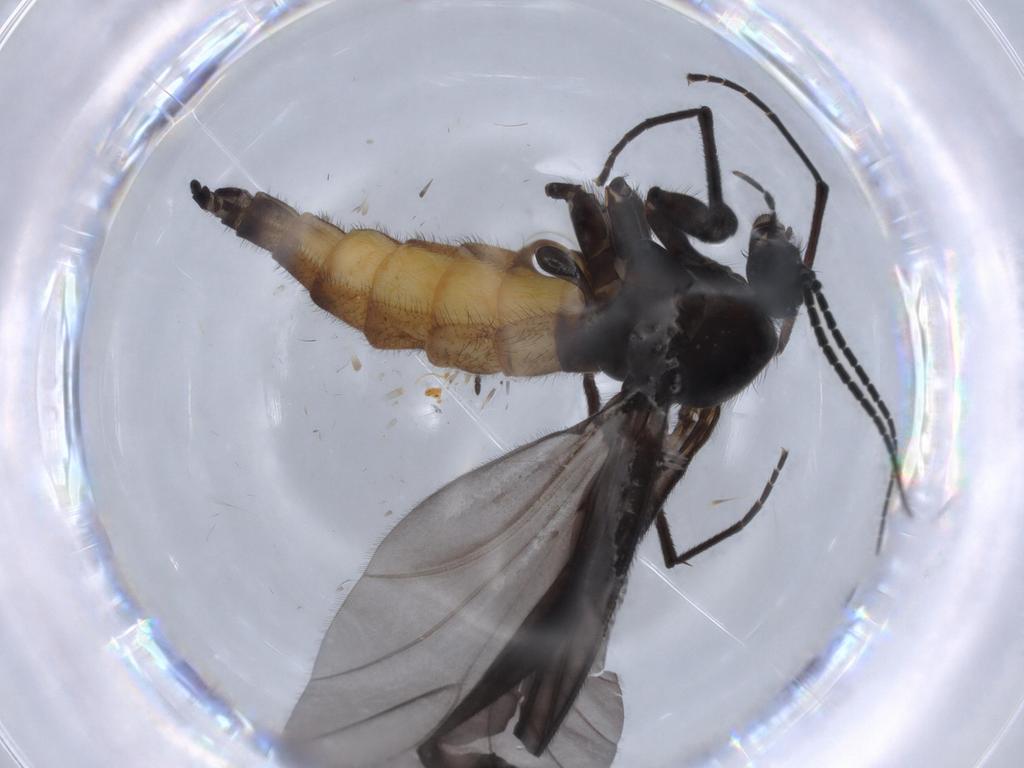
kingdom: Animalia
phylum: Arthropoda
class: Insecta
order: Diptera
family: Chironomidae
